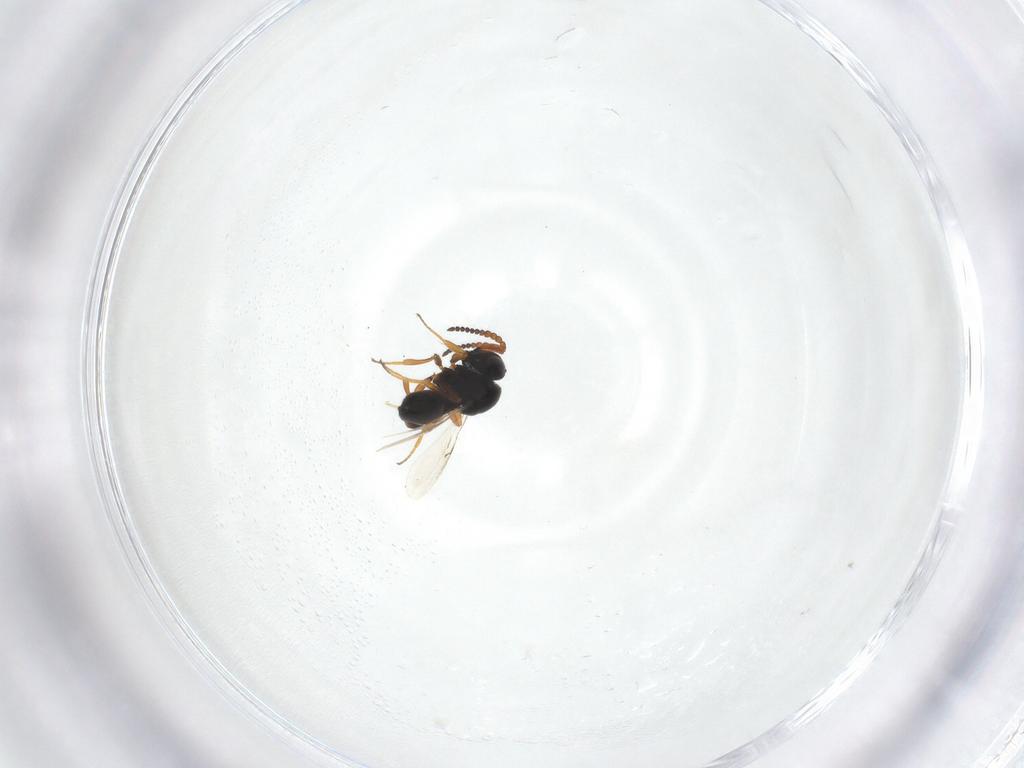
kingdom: Animalia
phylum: Arthropoda
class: Insecta
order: Hymenoptera
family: Scelionidae
